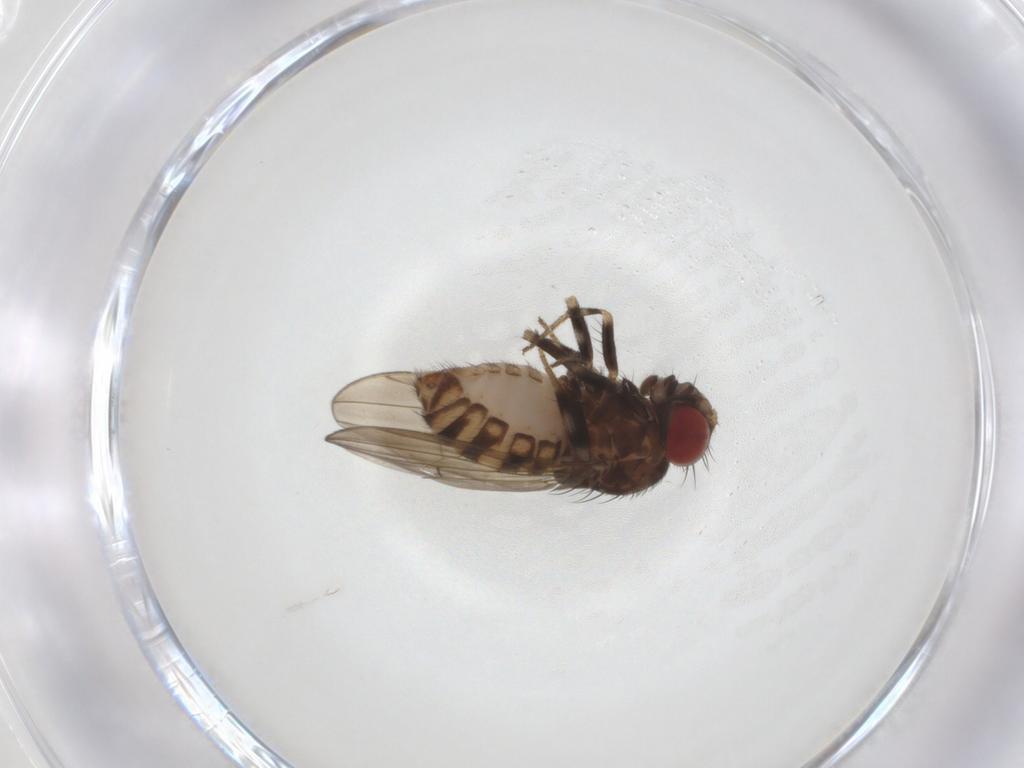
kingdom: Animalia
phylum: Arthropoda
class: Insecta
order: Diptera
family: Drosophilidae
